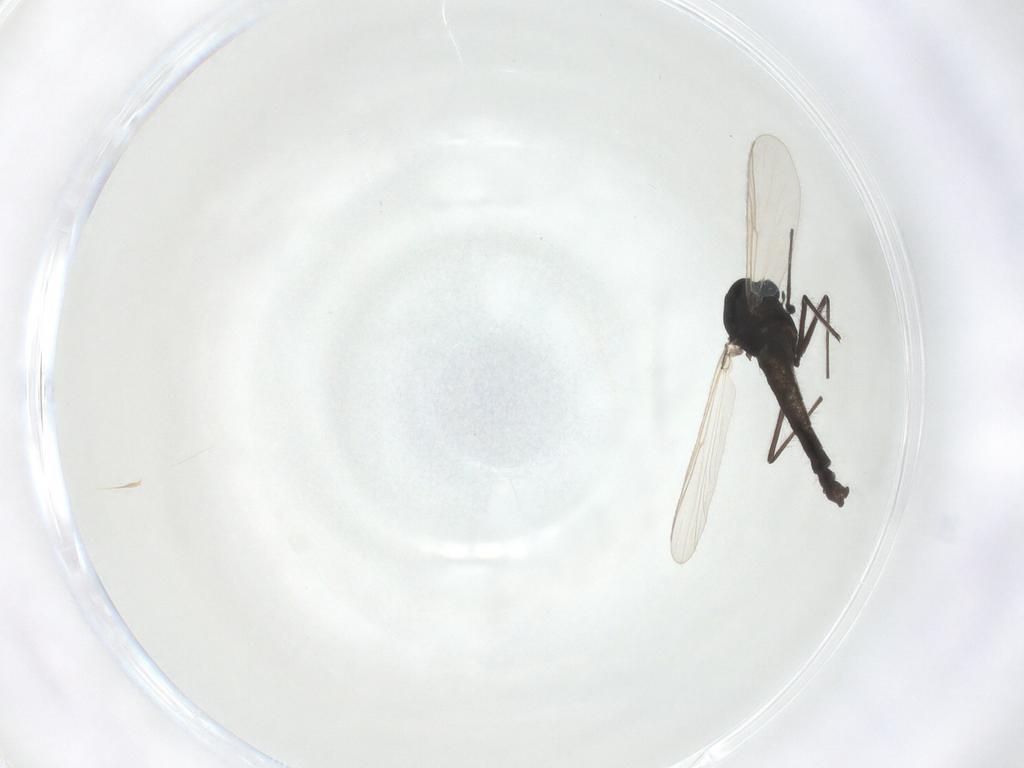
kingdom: Animalia
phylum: Arthropoda
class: Insecta
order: Diptera
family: Chironomidae
